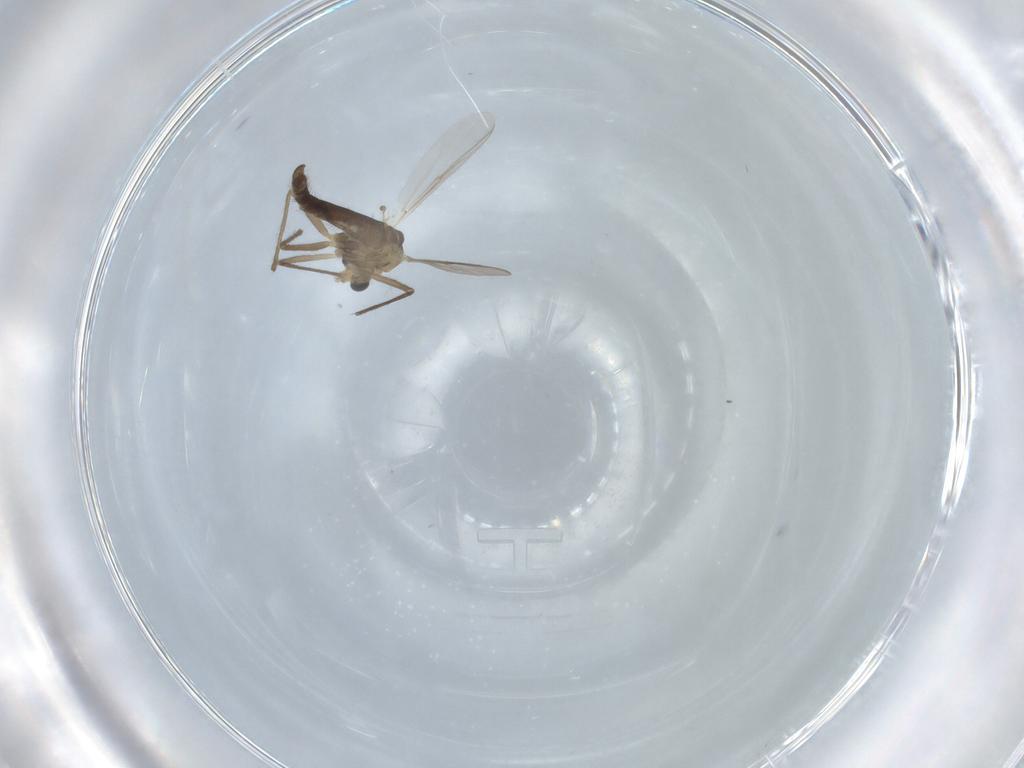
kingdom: Animalia
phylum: Arthropoda
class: Insecta
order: Diptera
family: Chironomidae
